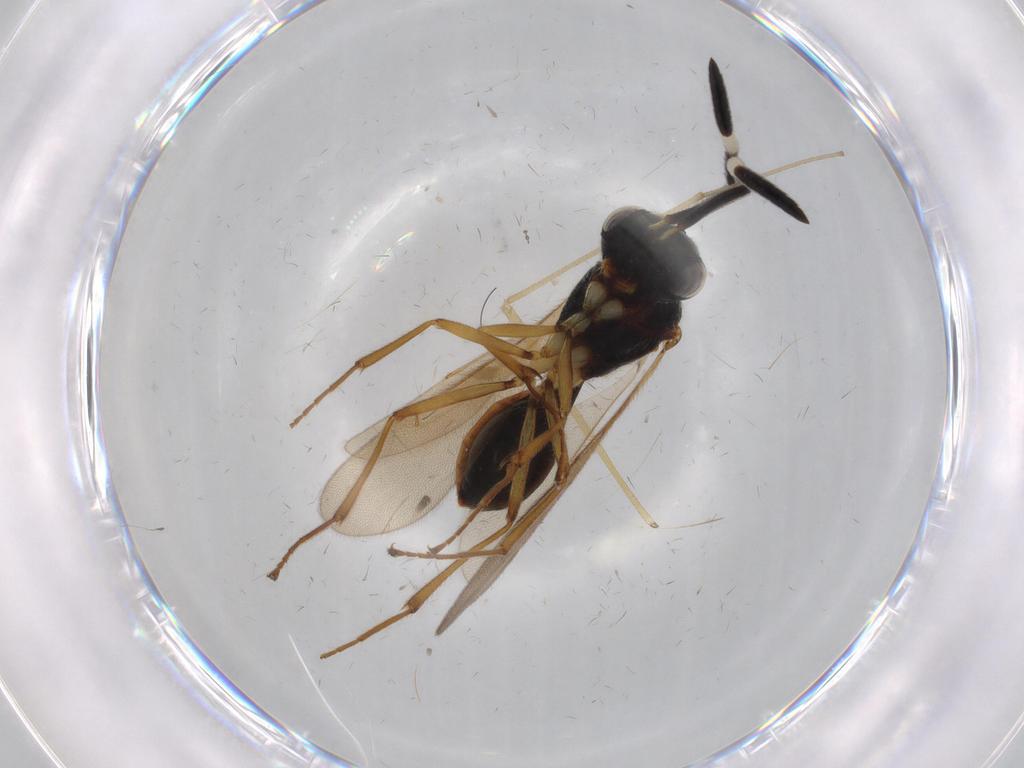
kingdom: Animalia
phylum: Arthropoda
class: Insecta
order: Hymenoptera
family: Scelionidae
